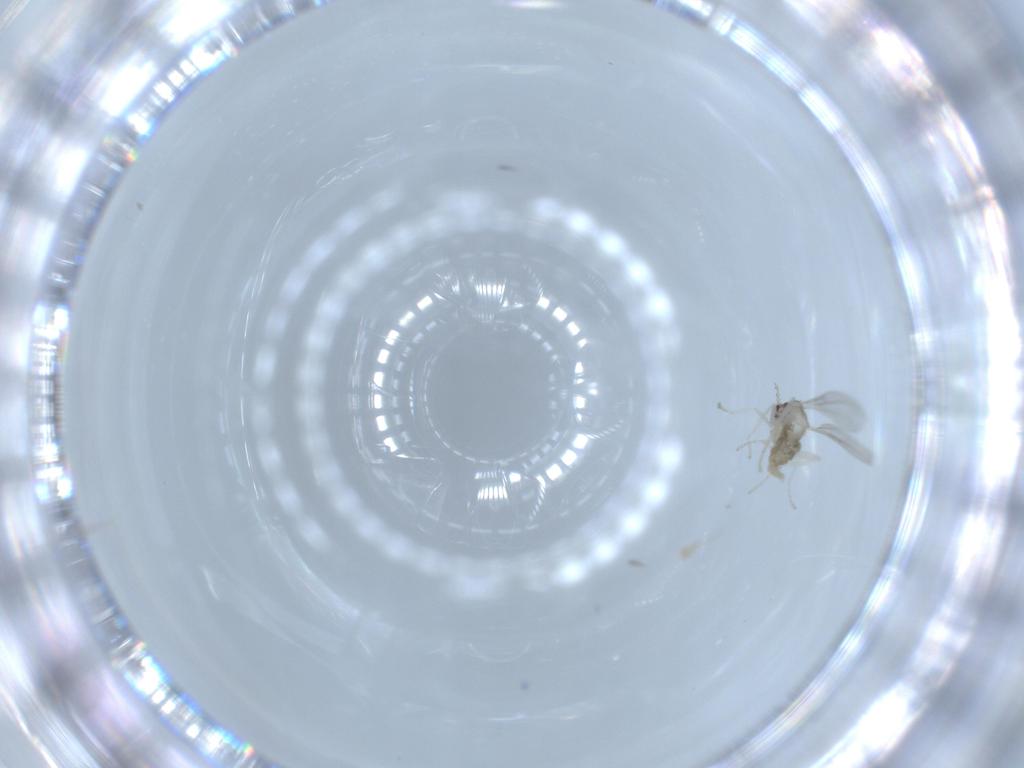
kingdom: Animalia
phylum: Arthropoda
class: Insecta
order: Diptera
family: Cecidomyiidae
